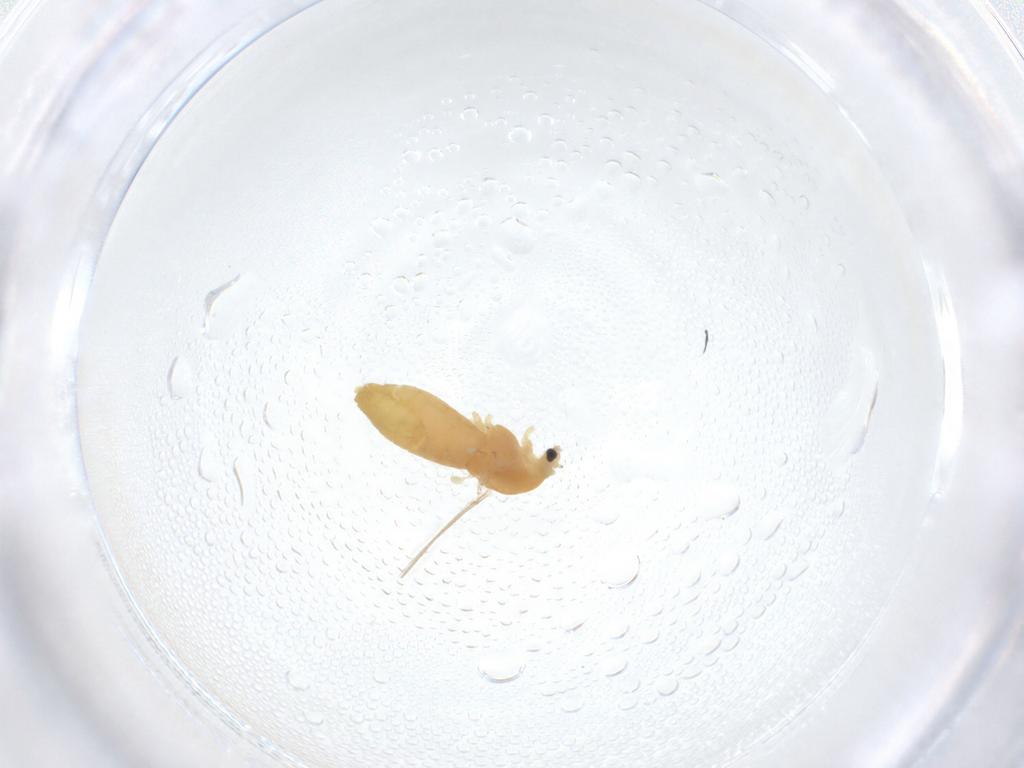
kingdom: Animalia
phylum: Arthropoda
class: Insecta
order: Diptera
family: Chironomidae
